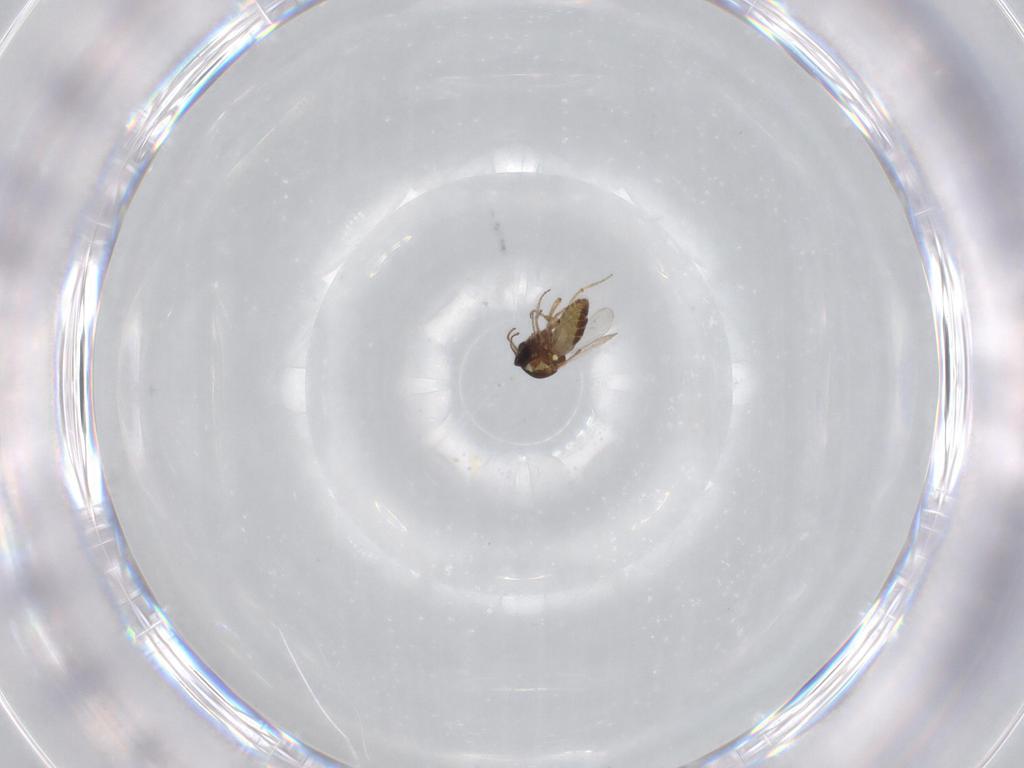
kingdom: Animalia
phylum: Arthropoda
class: Insecta
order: Diptera
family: Ceratopogonidae
